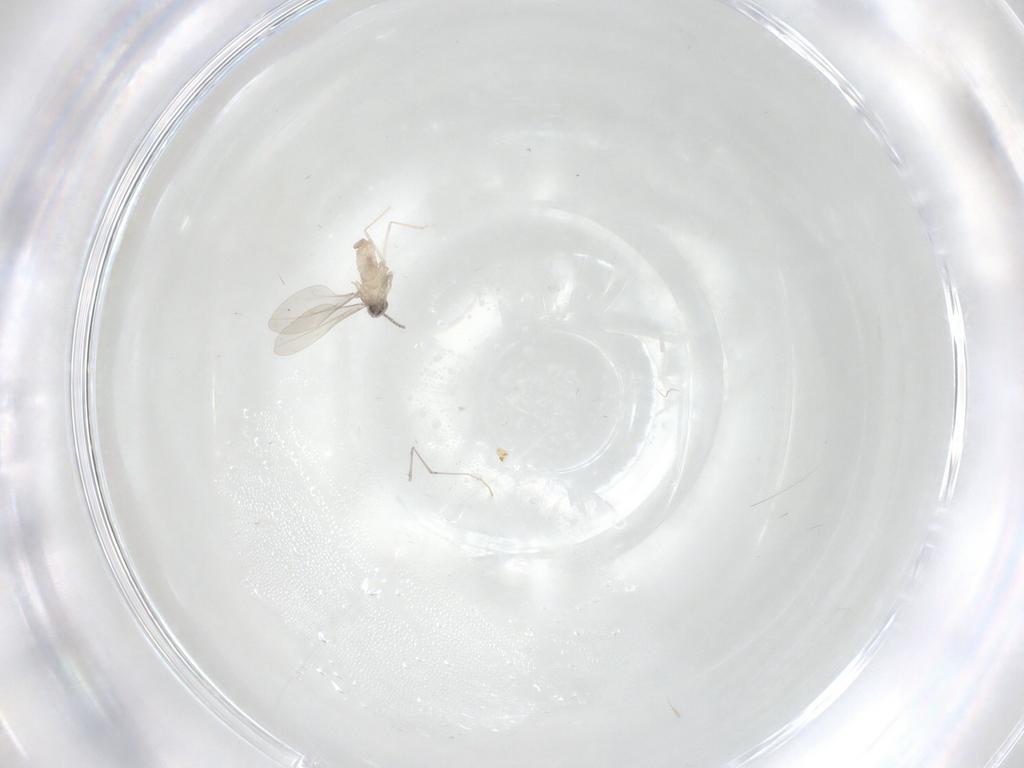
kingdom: Animalia
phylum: Arthropoda
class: Insecta
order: Diptera
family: Cecidomyiidae
